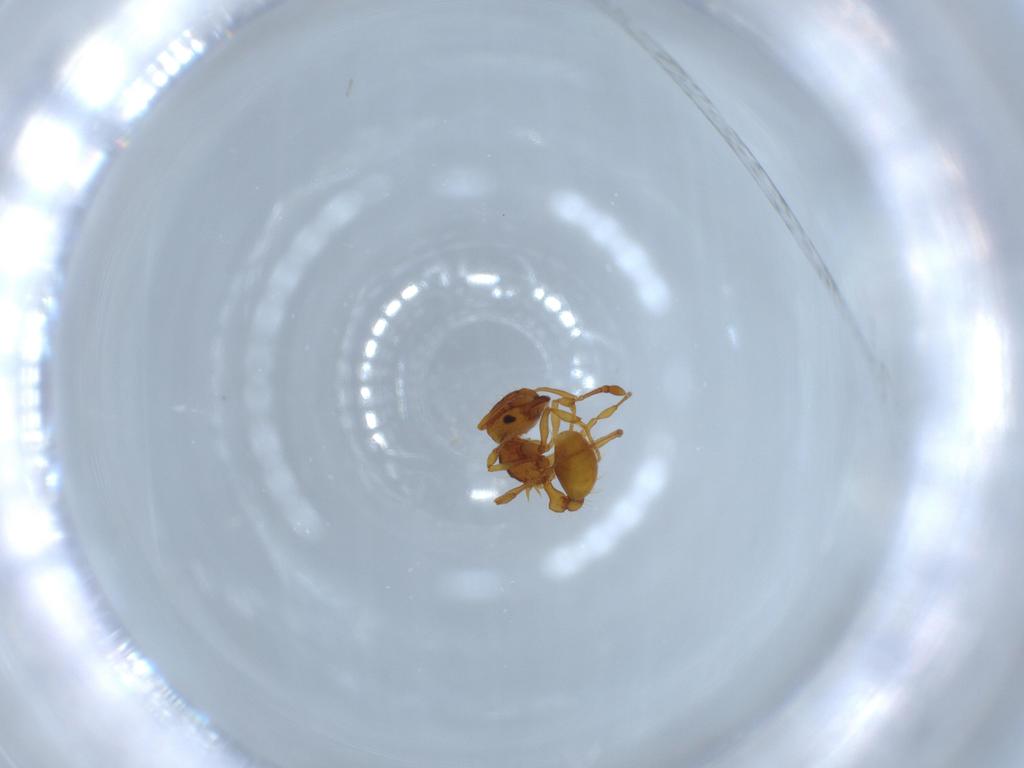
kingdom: Animalia
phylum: Arthropoda
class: Insecta
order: Hymenoptera
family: Formicidae
